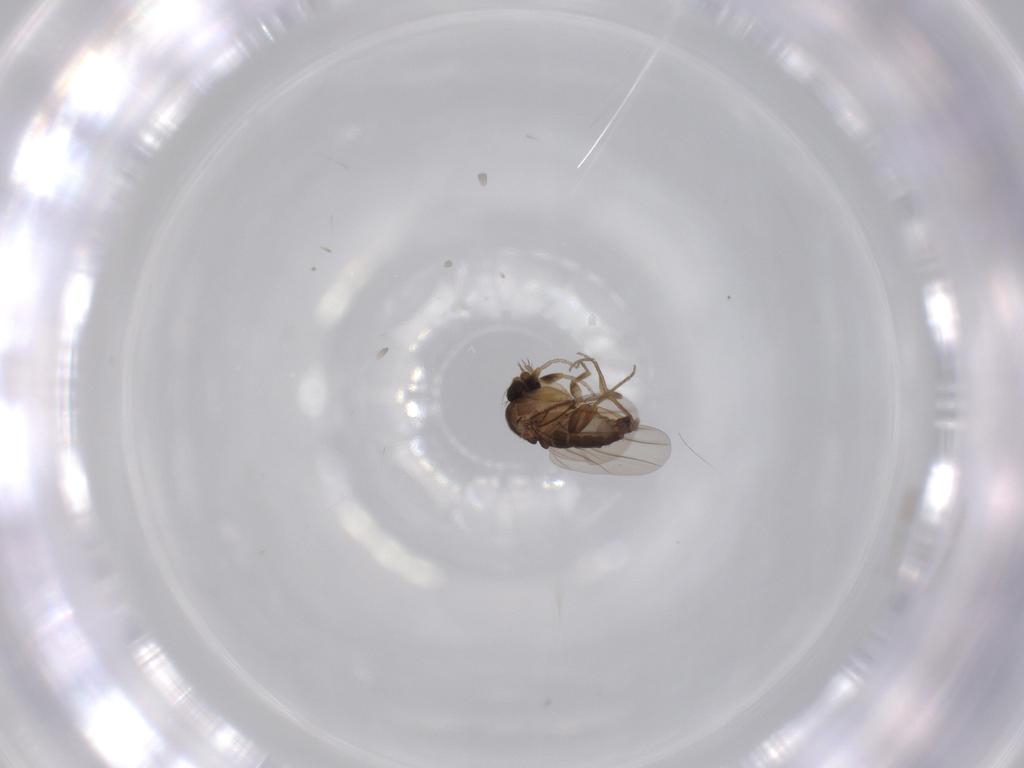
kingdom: Animalia
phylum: Arthropoda
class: Insecta
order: Diptera
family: Phoridae
